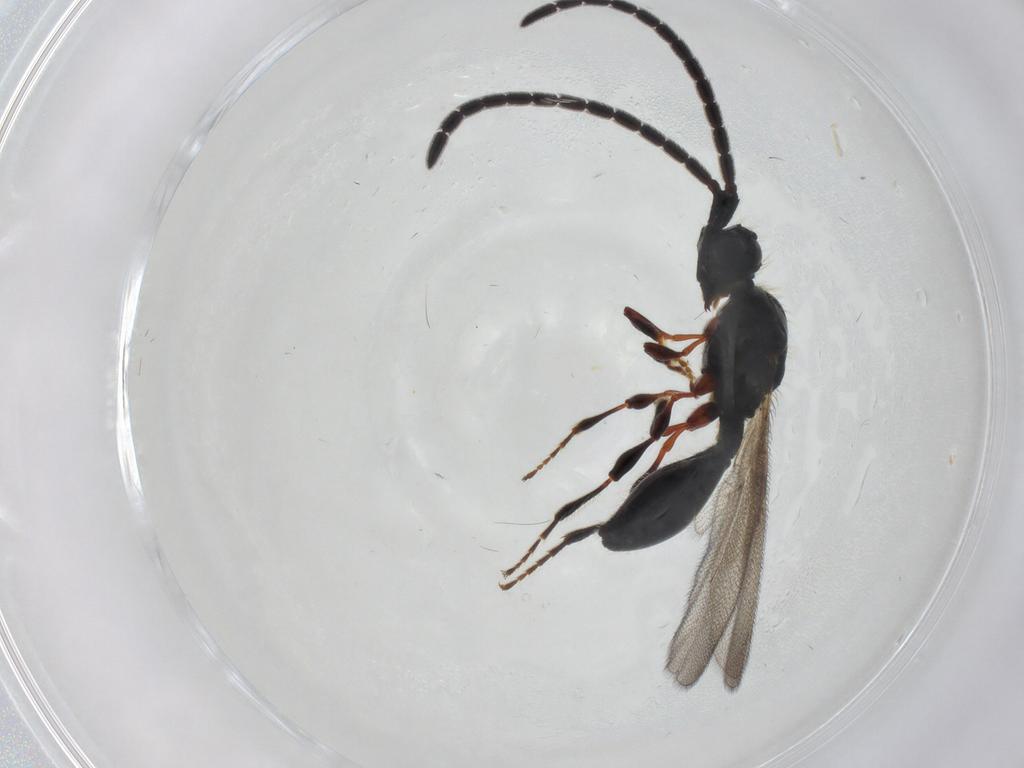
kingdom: Animalia
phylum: Arthropoda
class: Insecta
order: Hymenoptera
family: Diapriidae
